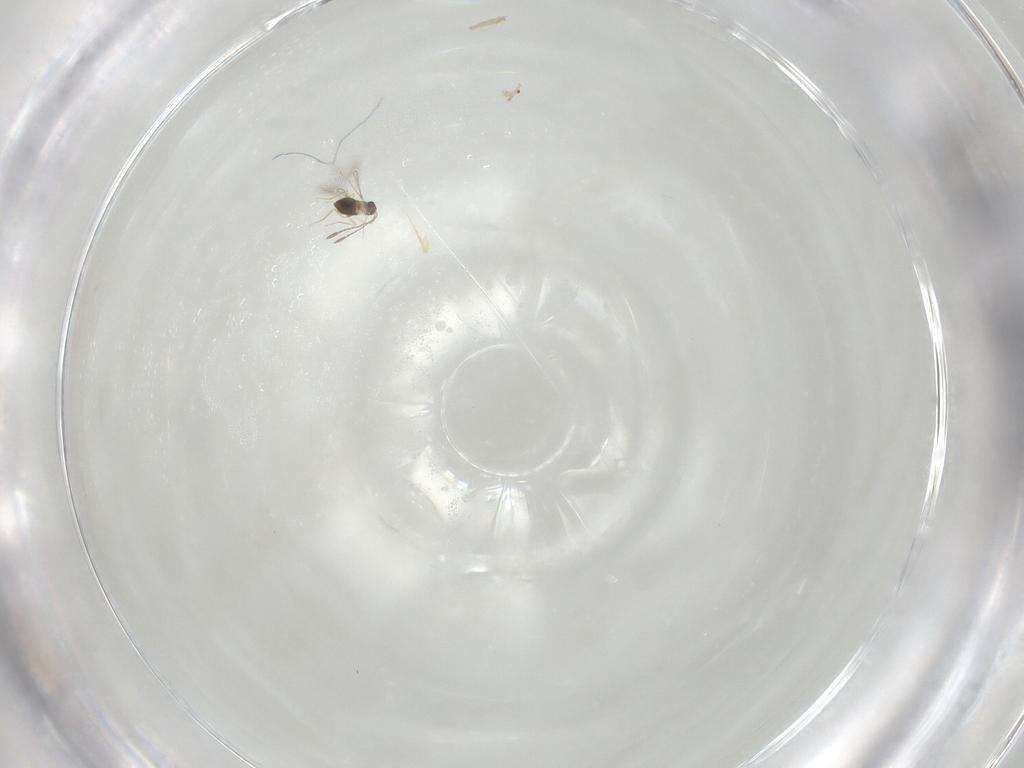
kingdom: Animalia
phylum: Arthropoda
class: Insecta
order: Hymenoptera
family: Mymaridae
